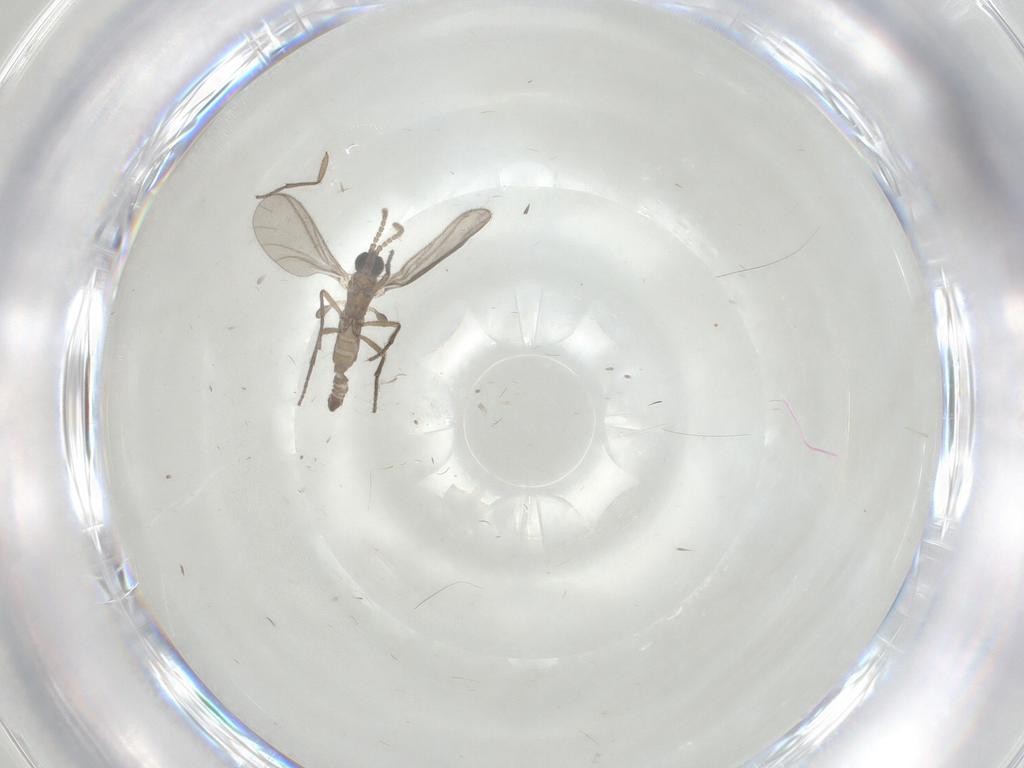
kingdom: Animalia
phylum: Arthropoda
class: Insecta
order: Diptera
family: Sciaridae
